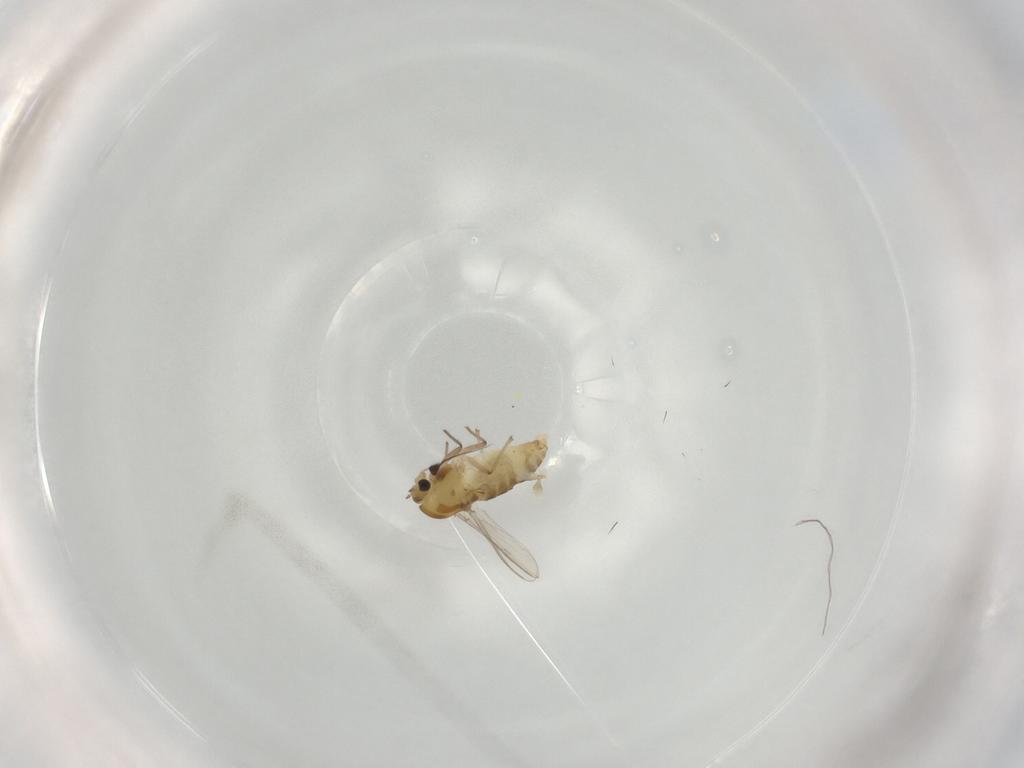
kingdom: Animalia
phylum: Arthropoda
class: Insecta
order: Diptera
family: Chironomidae
